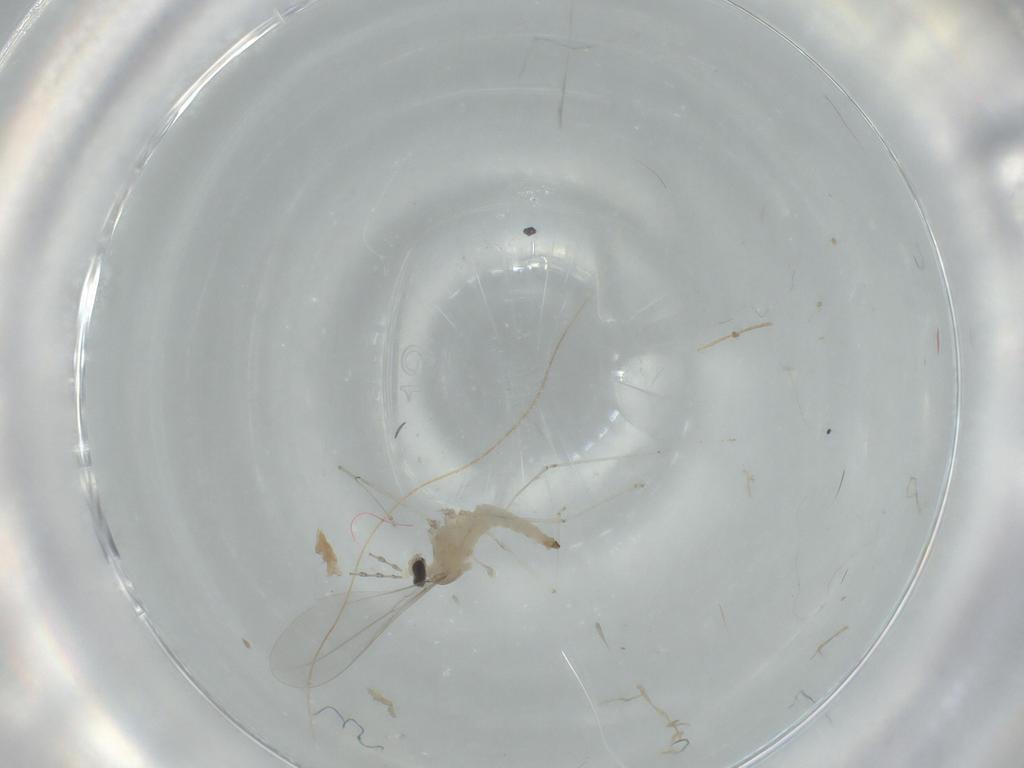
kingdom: Animalia
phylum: Arthropoda
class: Insecta
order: Diptera
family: Cecidomyiidae
